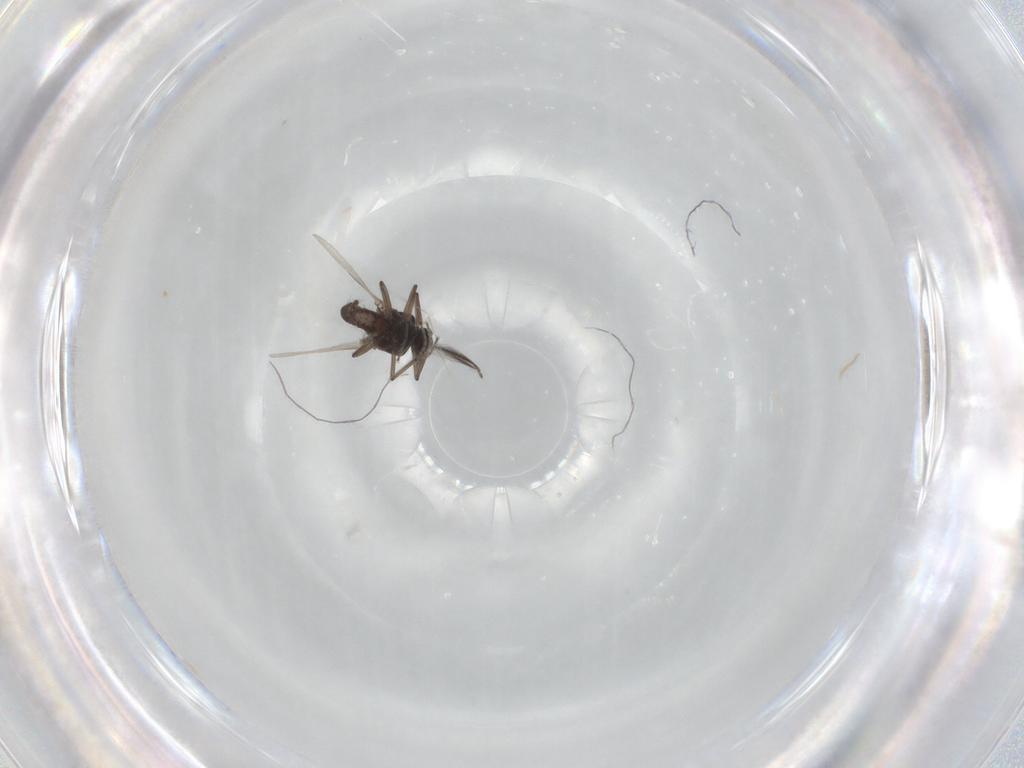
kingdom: Animalia
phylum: Arthropoda
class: Insecta
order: Diptera
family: Ceratopogonidae
